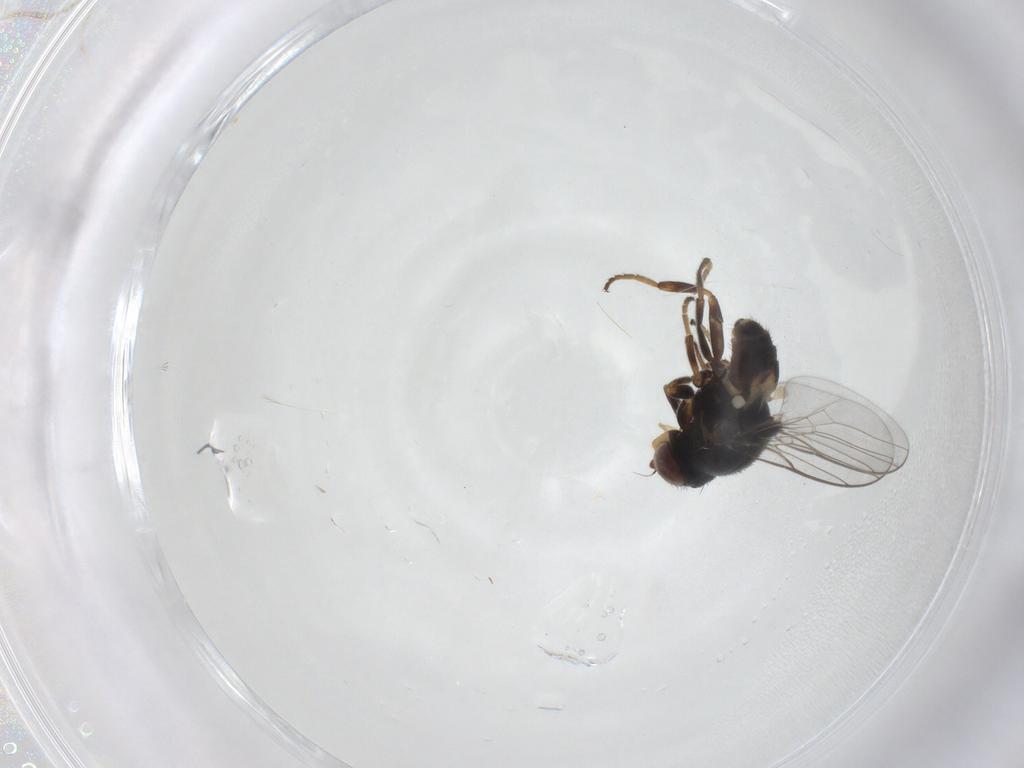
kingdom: Animalia
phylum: Arthropoda
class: Insecta
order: Diptera
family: Chloropidae
